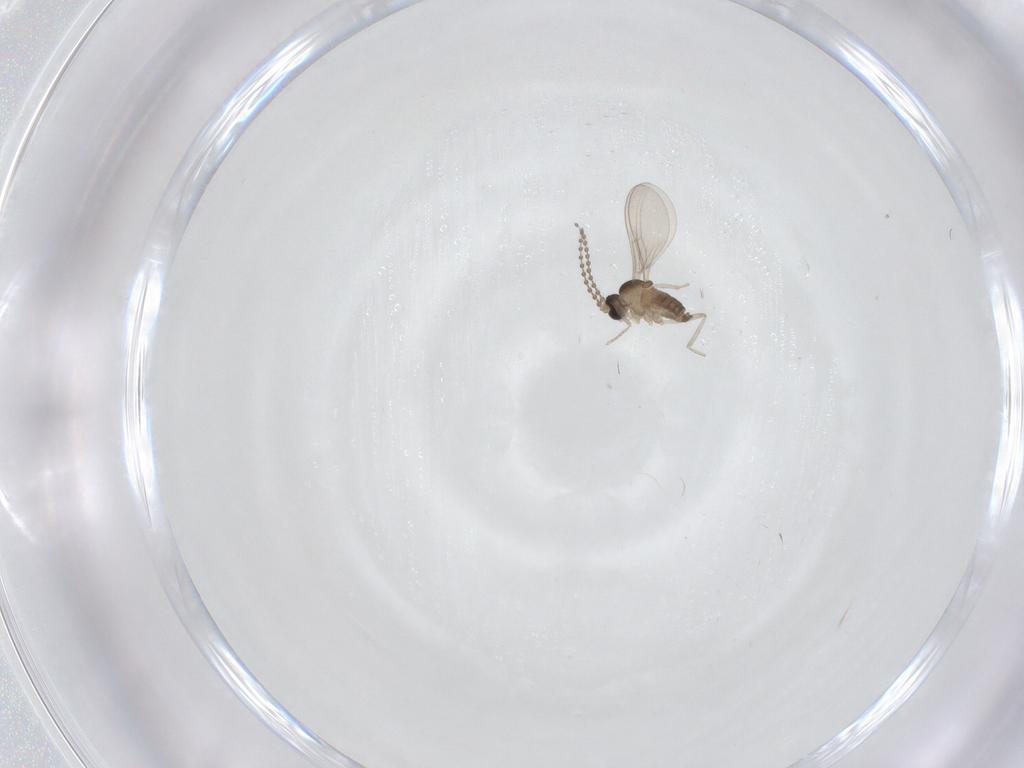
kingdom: Animalia
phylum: Arthropoda
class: Insecta
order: Diptera
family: Cecidomyiidae
